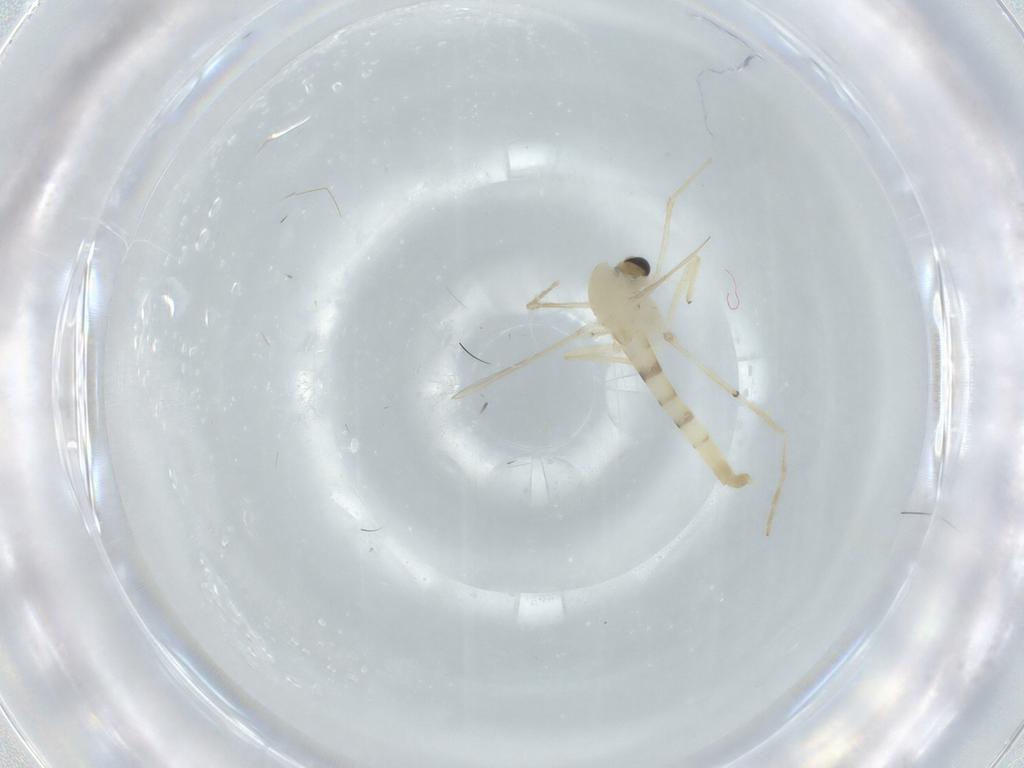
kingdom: Animalia
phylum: Arthropoda
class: Insecta
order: Diptera
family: Chironomidae
